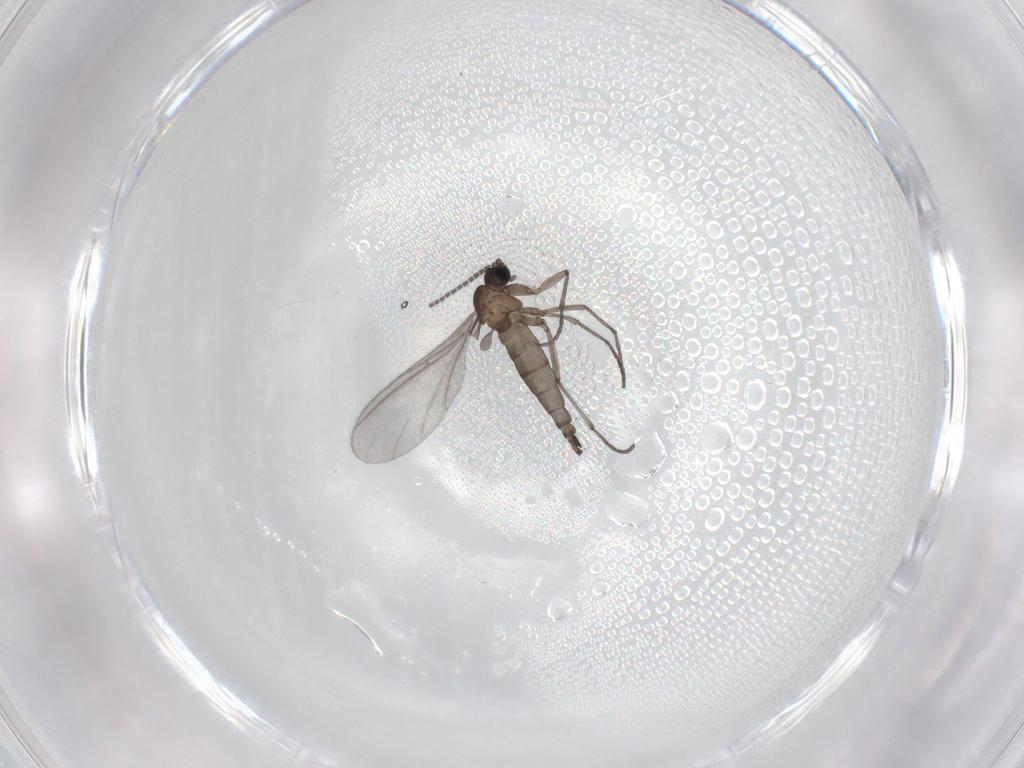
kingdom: Animalia
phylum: Arthropoda
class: Insecta
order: Diptera
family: Sciaridae
